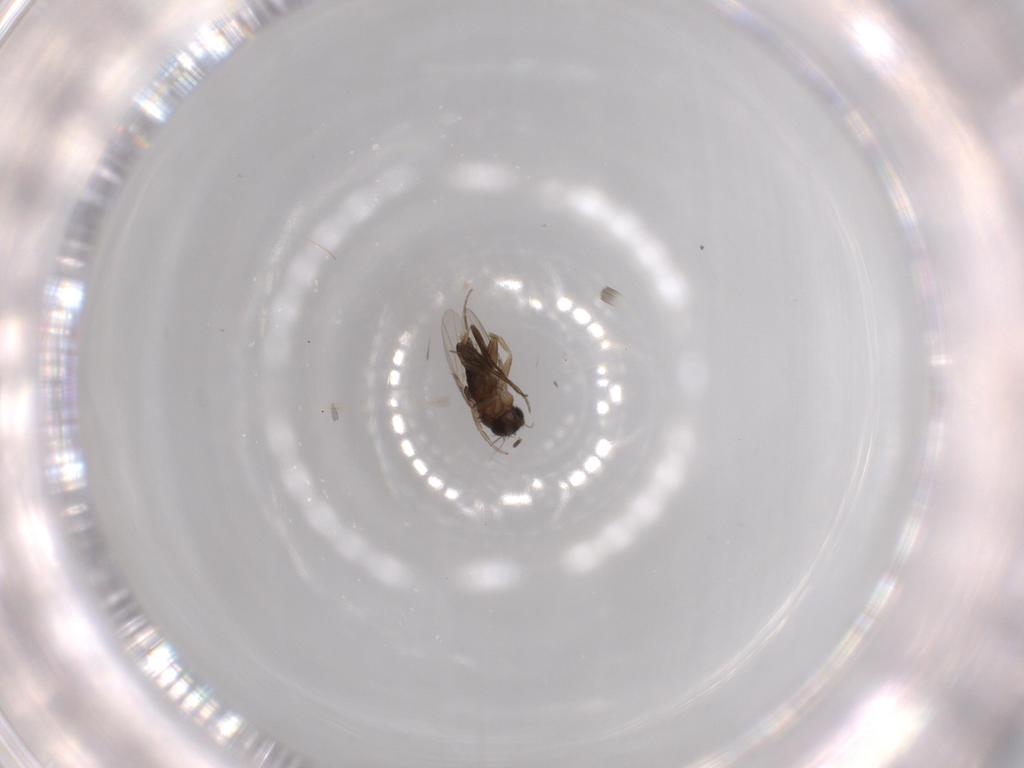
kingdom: Animalia
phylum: Arthropoda
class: Insecta
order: Diptera
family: Phoridae
